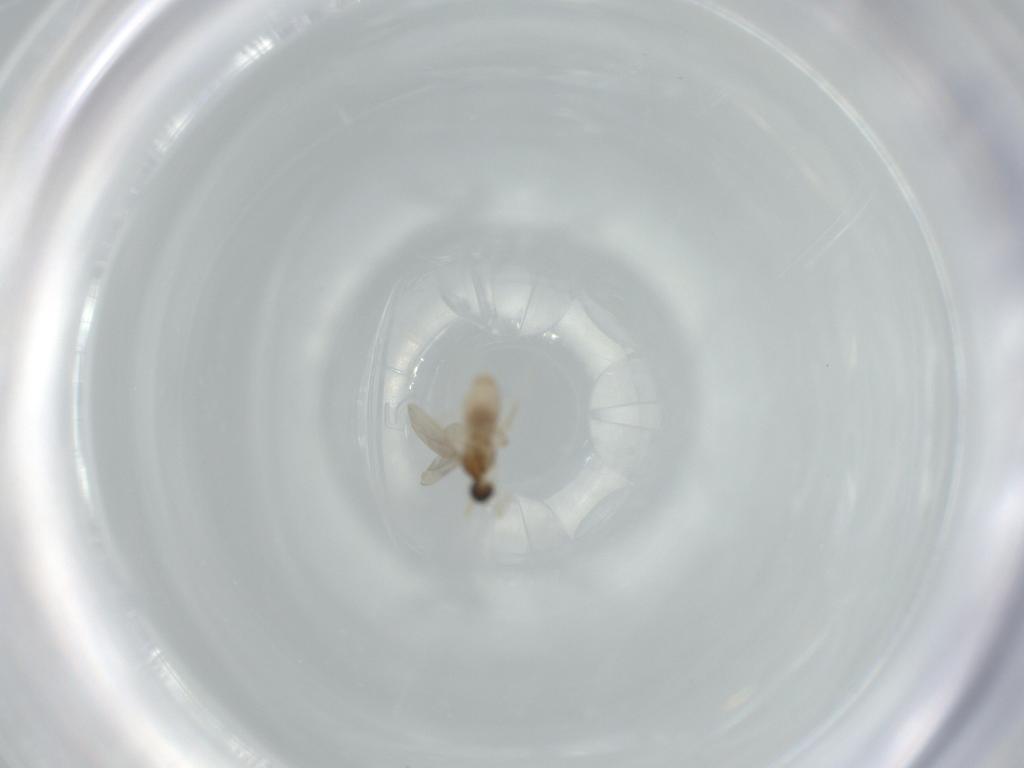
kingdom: Animalia
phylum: Arthropoda
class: Insecta
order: Diptera
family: Cecidomyiidae
